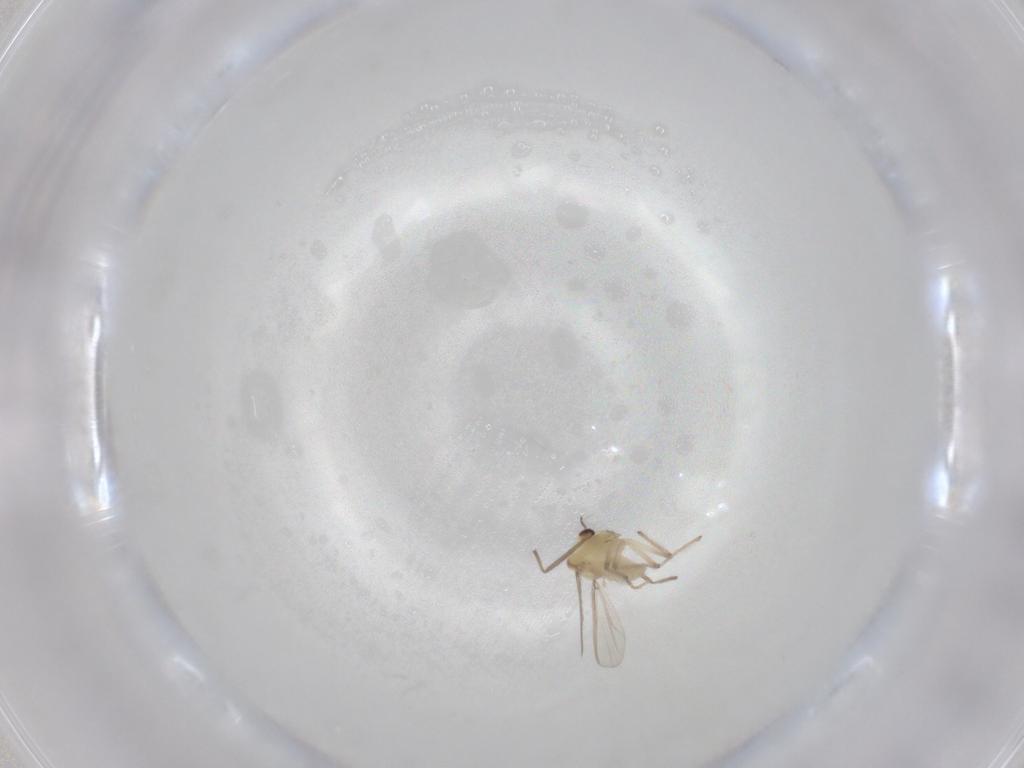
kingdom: Animalia
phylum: Arthropoda
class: Insecta
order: Diptera
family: Chironomidae
